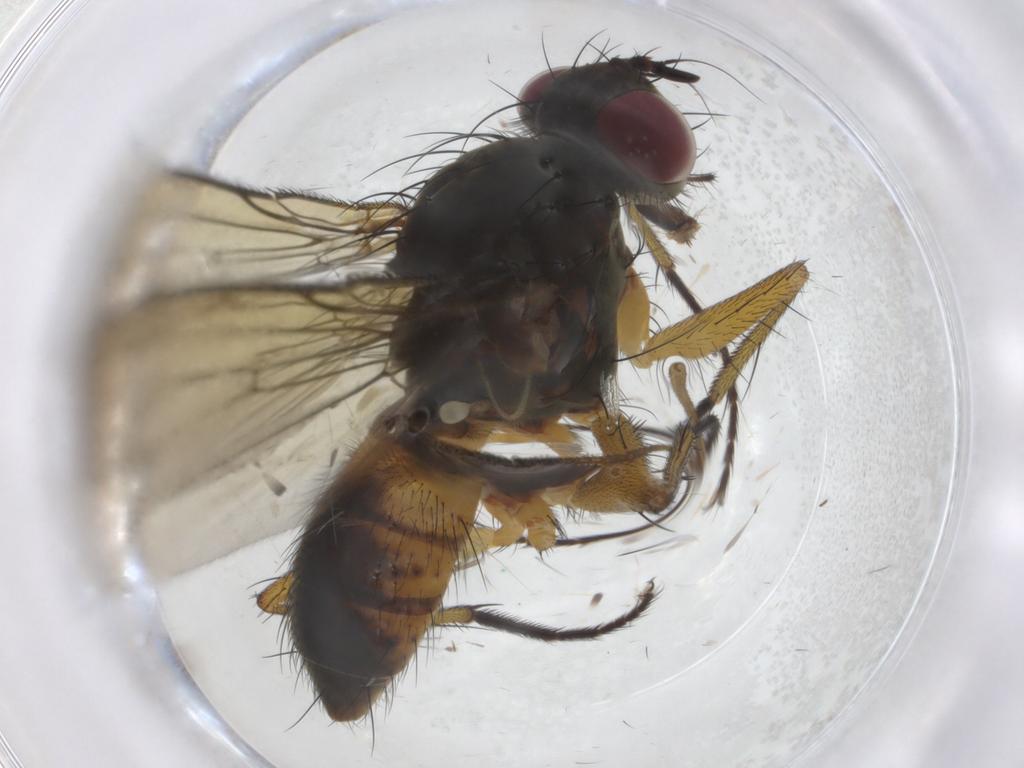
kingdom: Animalia
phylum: Arthropoda
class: Insecta
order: Diptera
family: Muscidae
